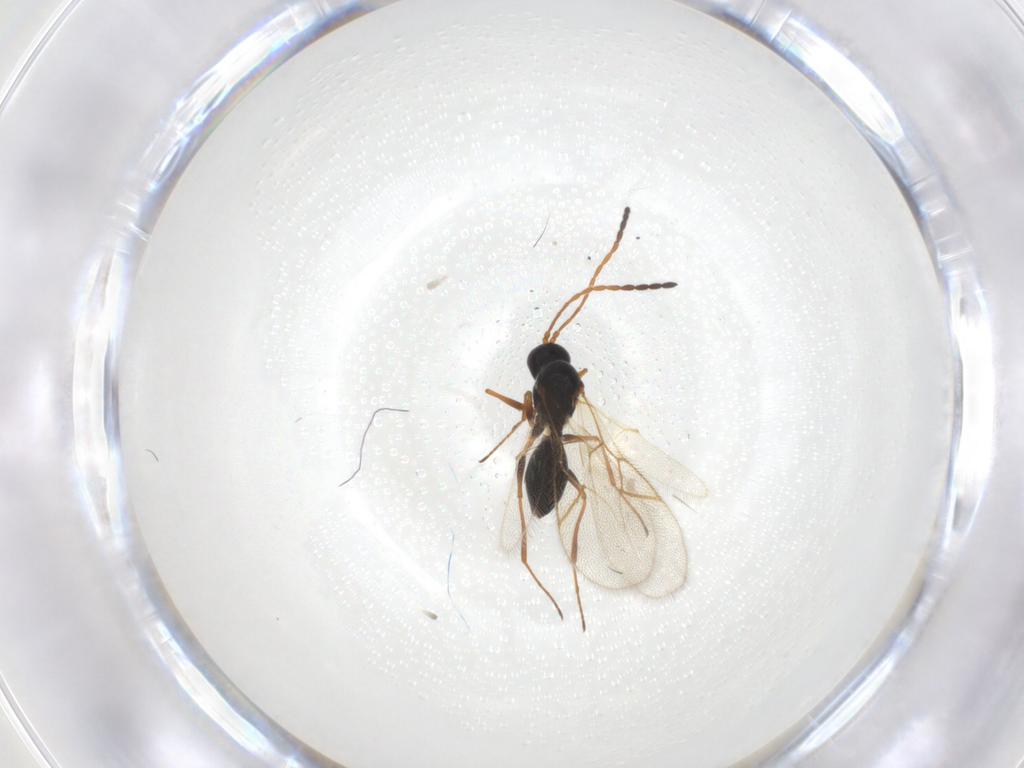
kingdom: Animalia
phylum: Arthropoda
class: Insecta
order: Hymenoptera
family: Figitidae
